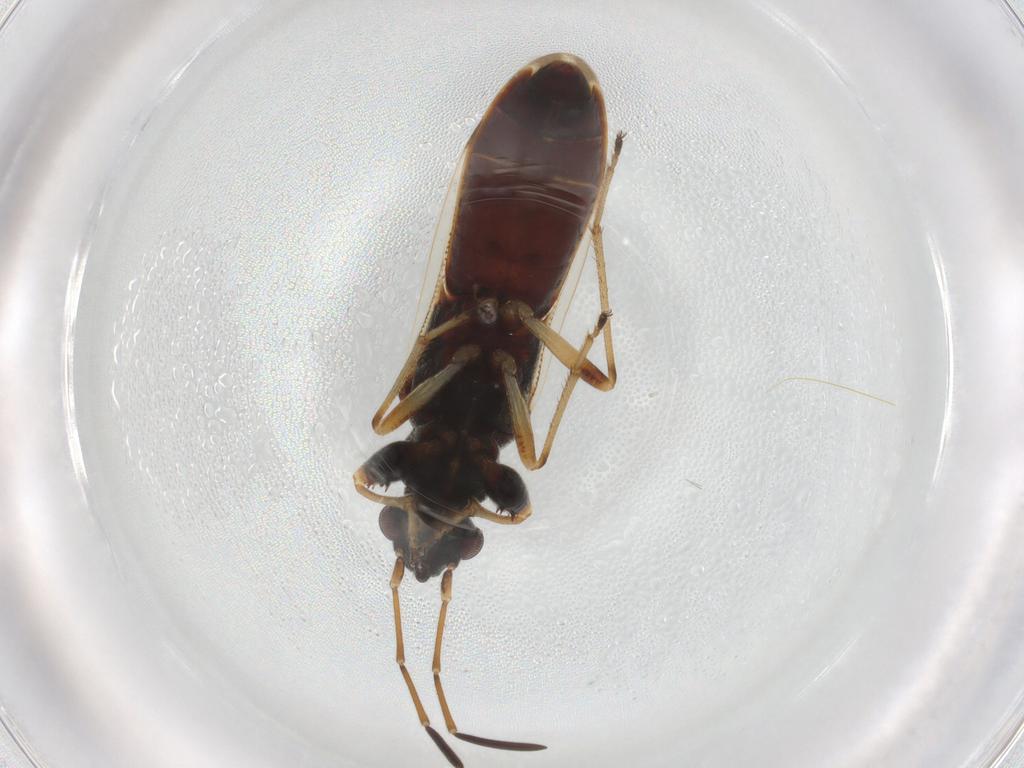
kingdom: Animalia
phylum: Arthropoda
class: Insecta
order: Hemiptera
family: Rhyparochromidae
